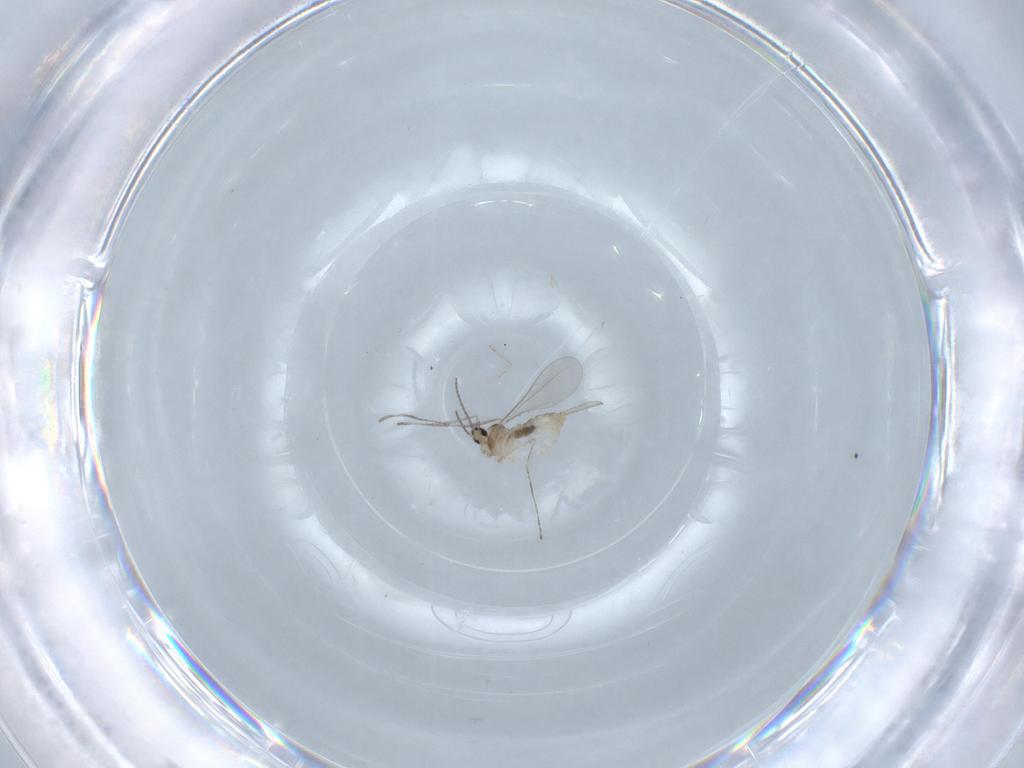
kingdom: Animalia
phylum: Arthropoda
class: Insecta
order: Diptera
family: Cecidomyiidae
